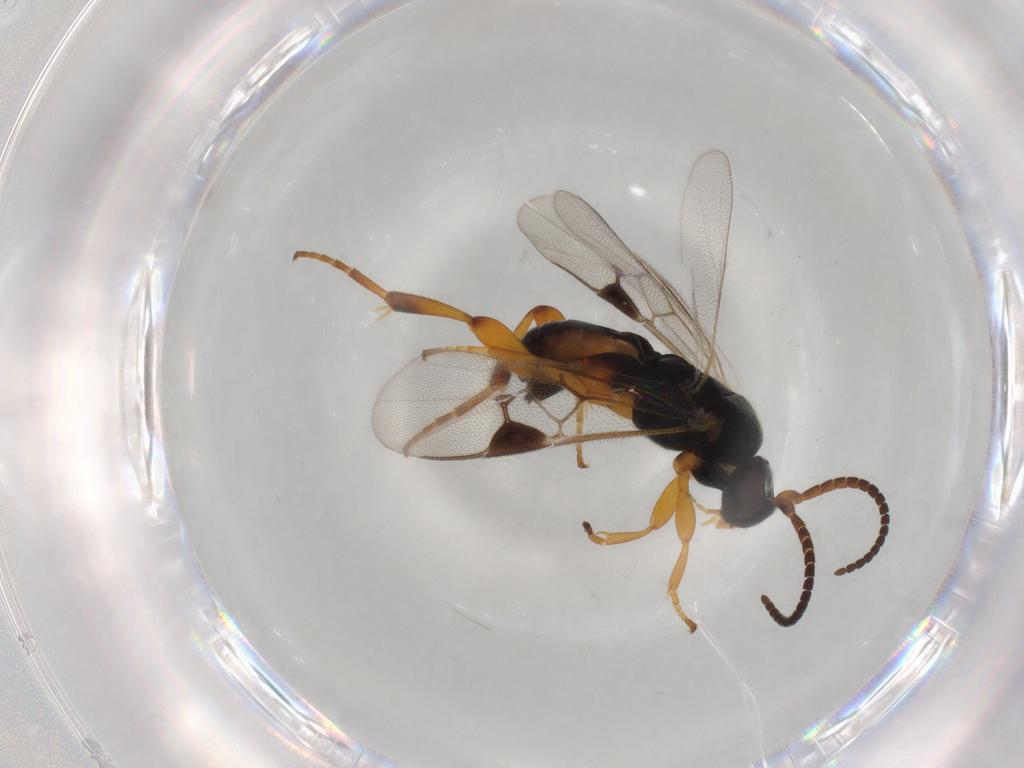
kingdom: Animalia
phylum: Arthropoda
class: Insecta
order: Hymenoptera
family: Braconidae
